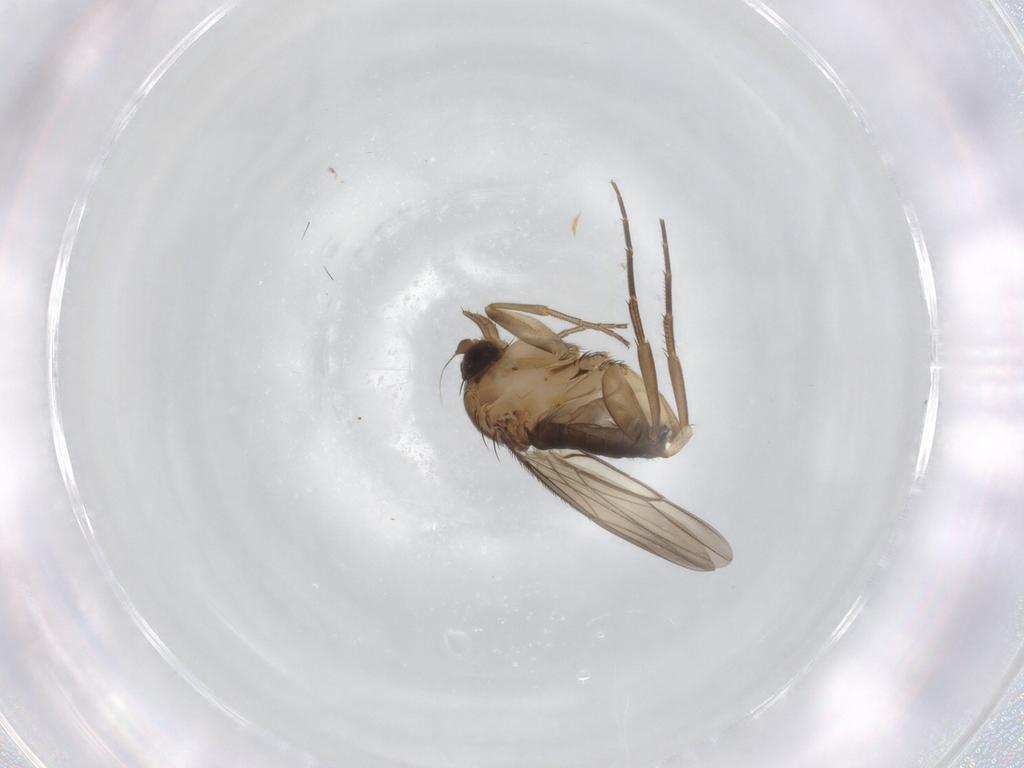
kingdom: Animalia
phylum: Arthropoda
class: Insecta
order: Diptera
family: Phoridae
